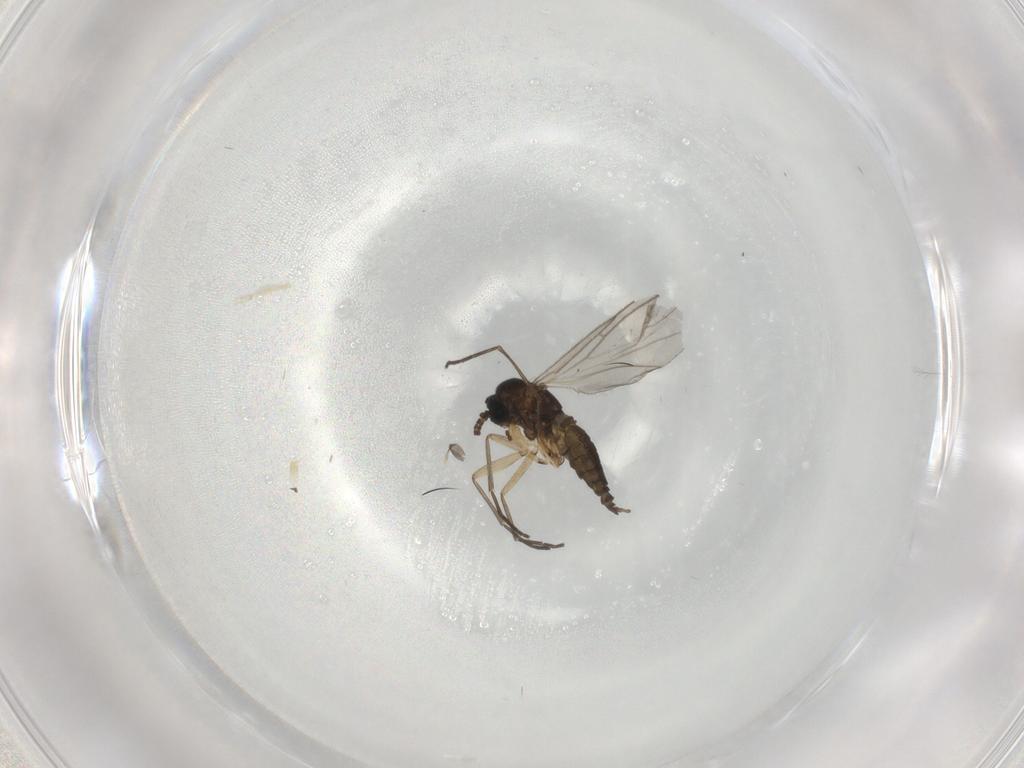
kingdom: Animalia
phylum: Arthropoda
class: Insecta
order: Diptera
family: Sciaridae
